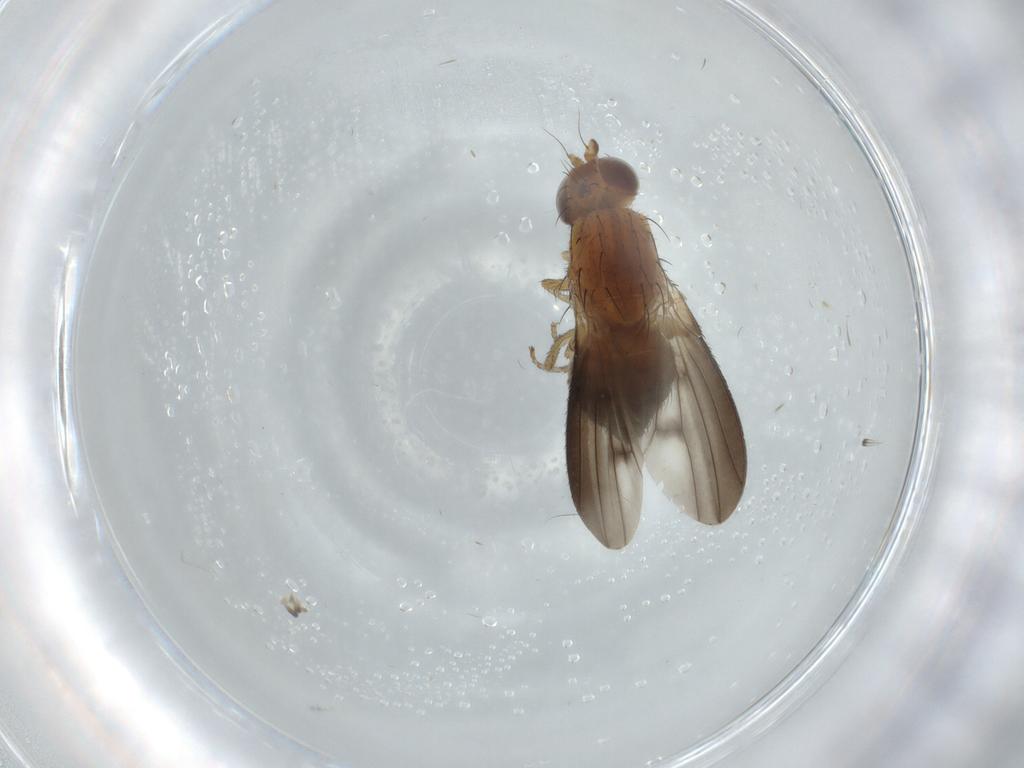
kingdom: Animalia
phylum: Arthropoda
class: Insecta
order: Diptera
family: Heleomyzidae
